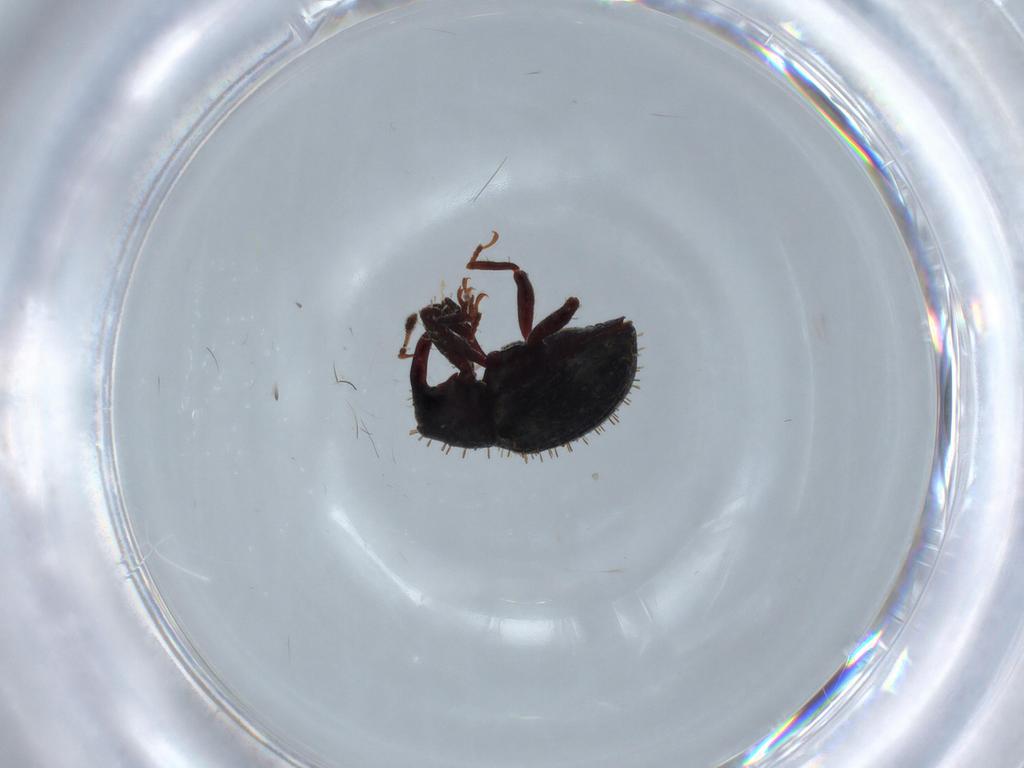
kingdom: Animalia
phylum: Arthropoda
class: Insecta
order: Coleoptera
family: Curculionidae
